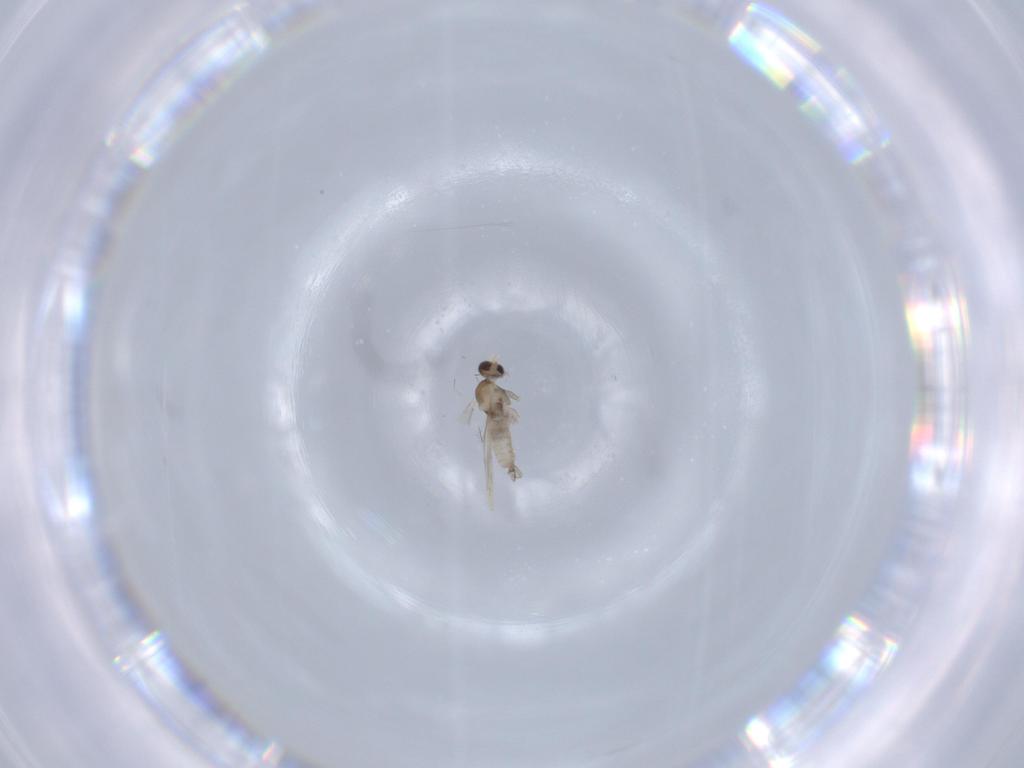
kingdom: Animalia
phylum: Arthropoda
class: Insecta
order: Diptera
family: Cecidomyiidae
